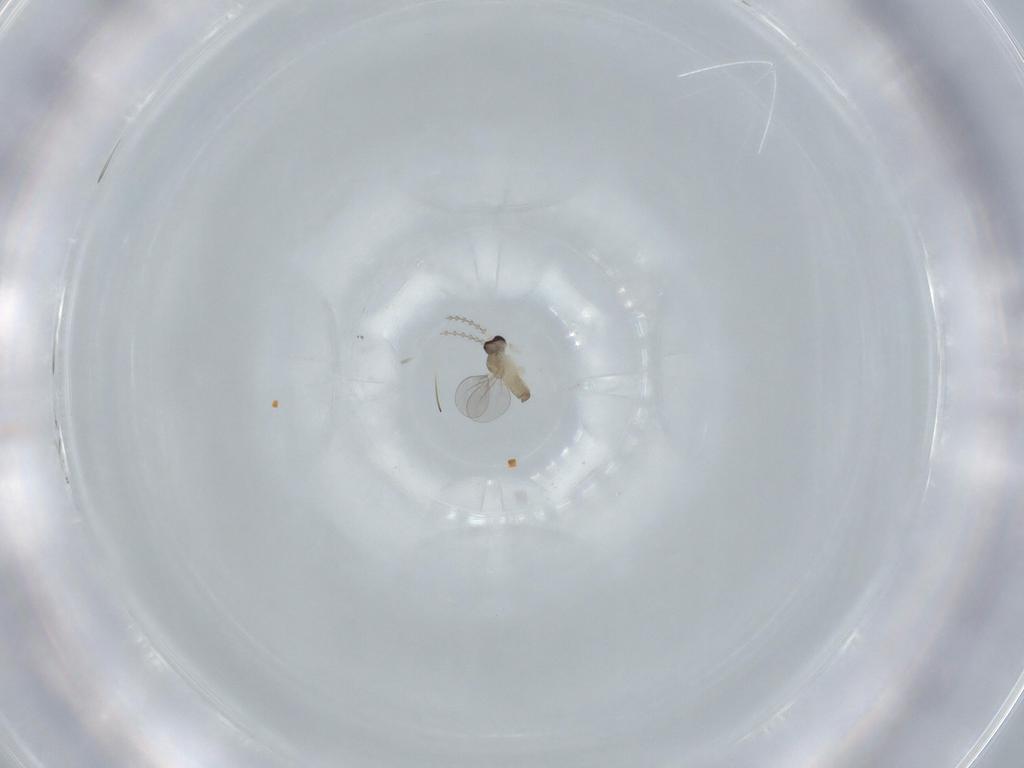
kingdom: Animalia
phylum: Arthropoda
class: Insecta
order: Diptera
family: Cecidomyiidae
